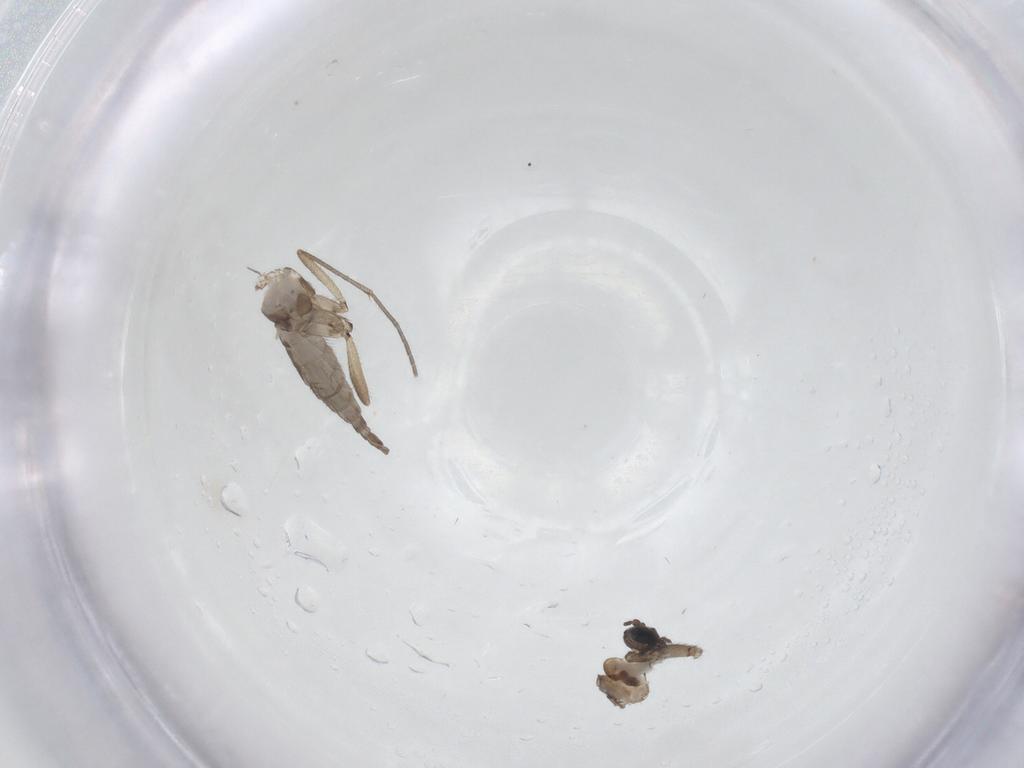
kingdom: Animalia
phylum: Arthropoda
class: Insecta
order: Diptera
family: Sciaridae
